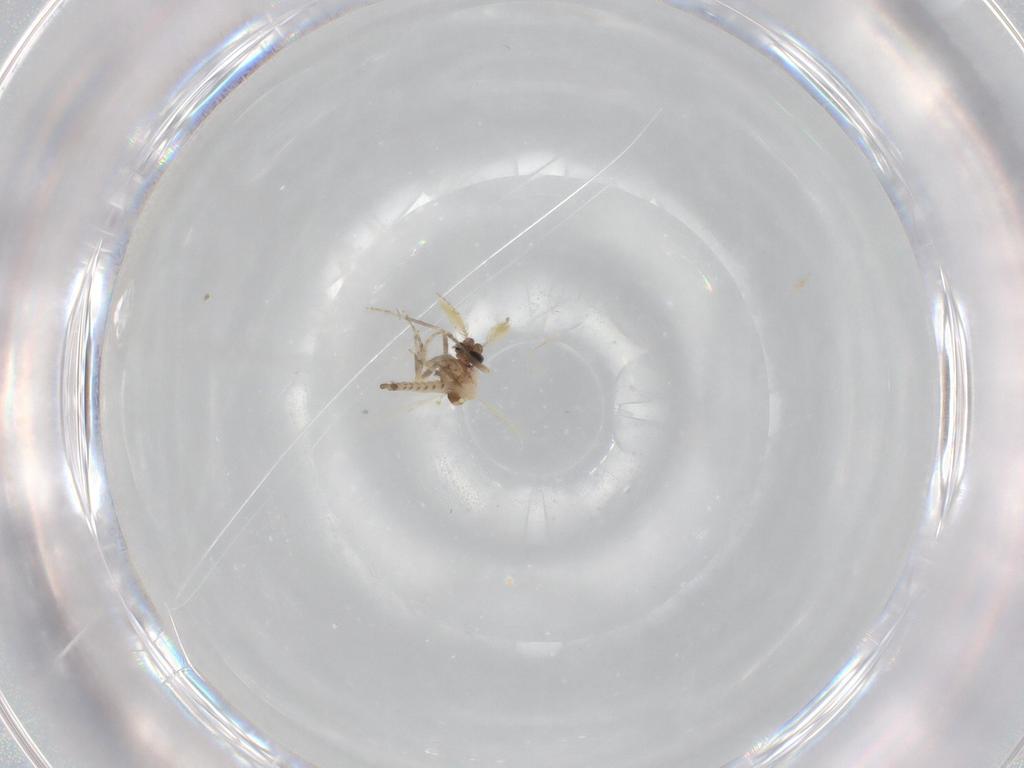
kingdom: Animalia
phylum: Arthropoda
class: Insecta
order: Diptera
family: Ceratopogonidae
